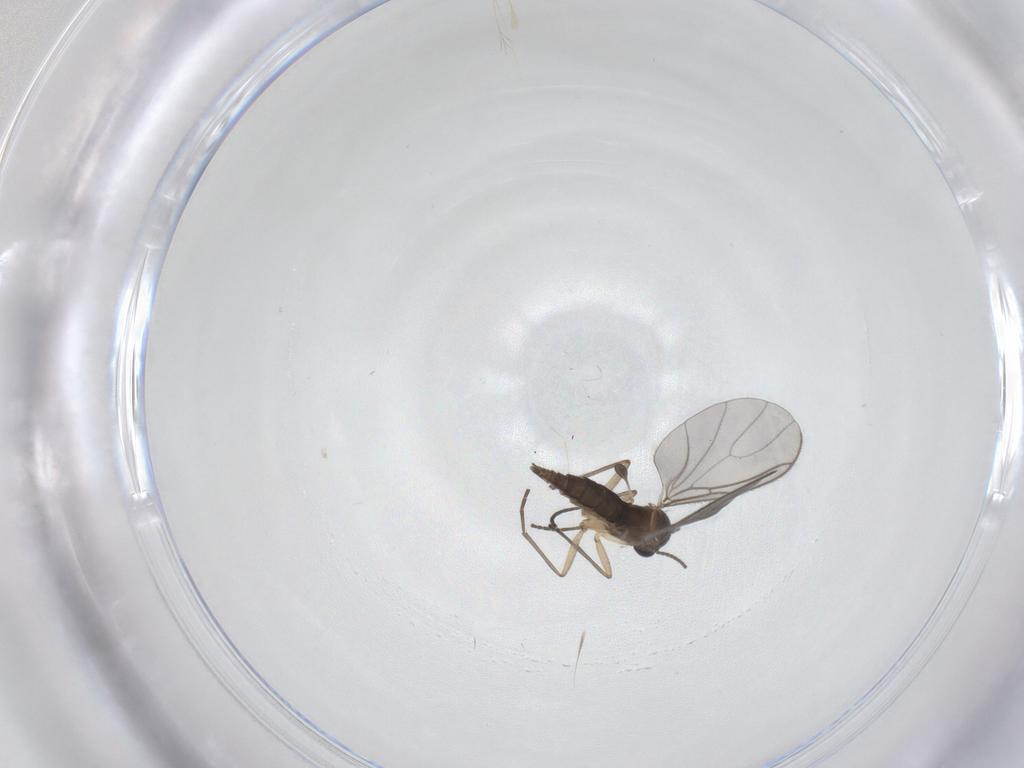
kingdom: Animalia
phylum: Arthropoda
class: Insecta
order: Diptera
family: Sciaridae
